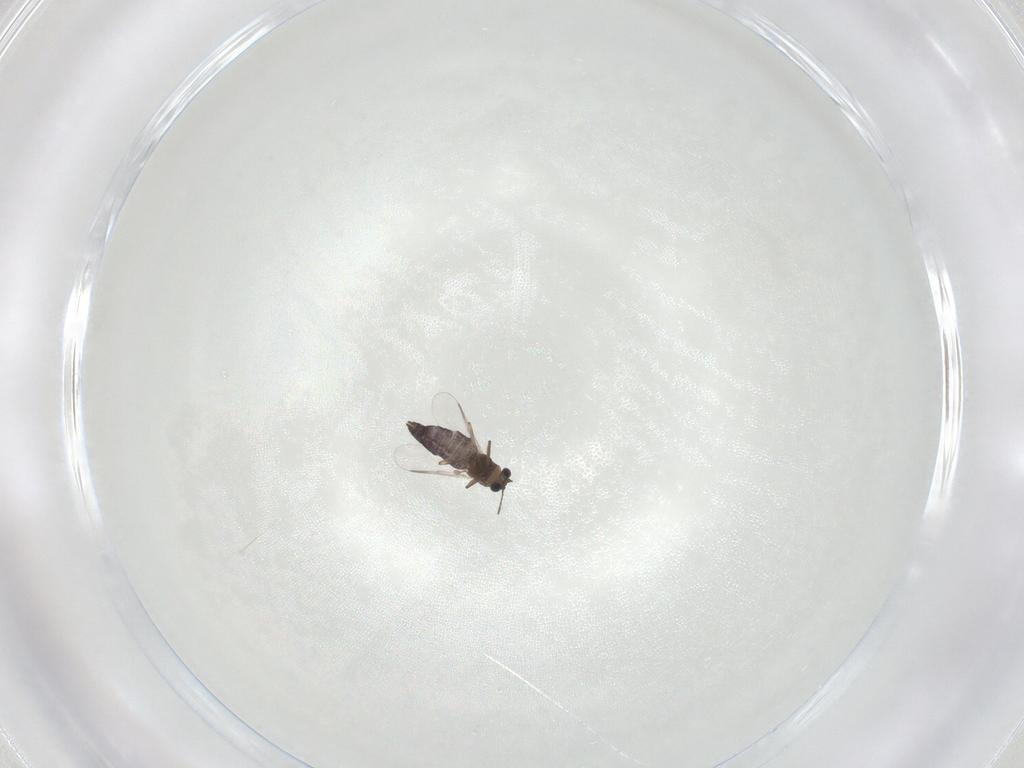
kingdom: Animalia
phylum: Arthropoda
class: Insecta
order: Diptera
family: Chironomidae
